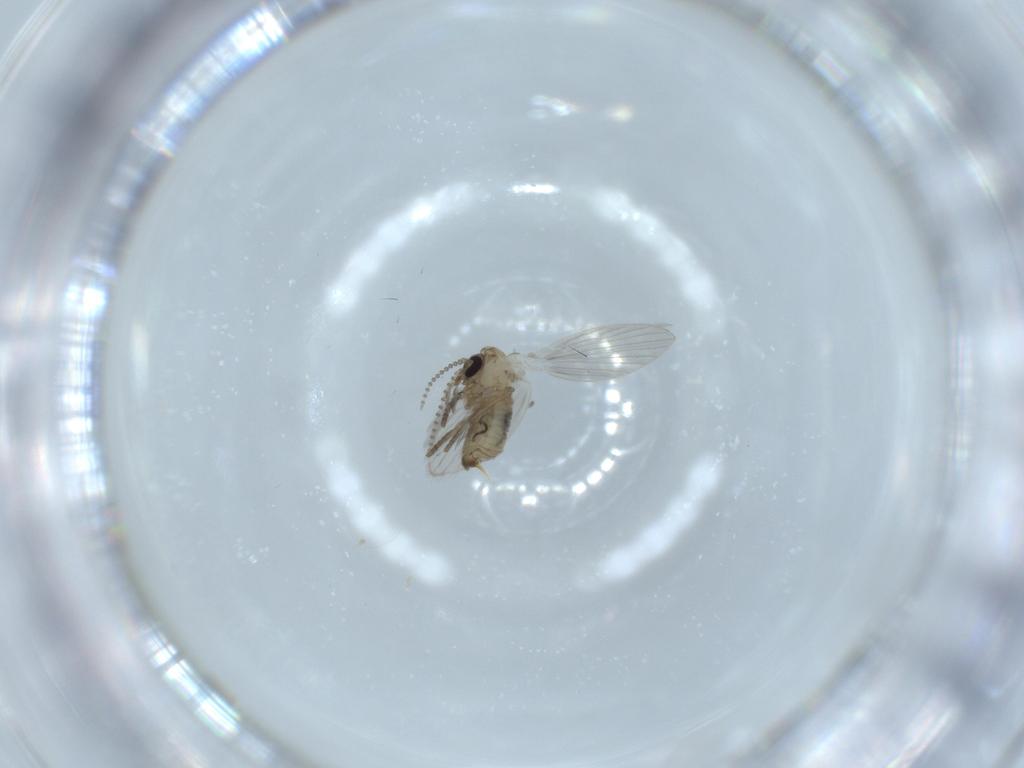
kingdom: Animalia
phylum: Arthropoda
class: Insecta
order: Diptera
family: Psychodidae
